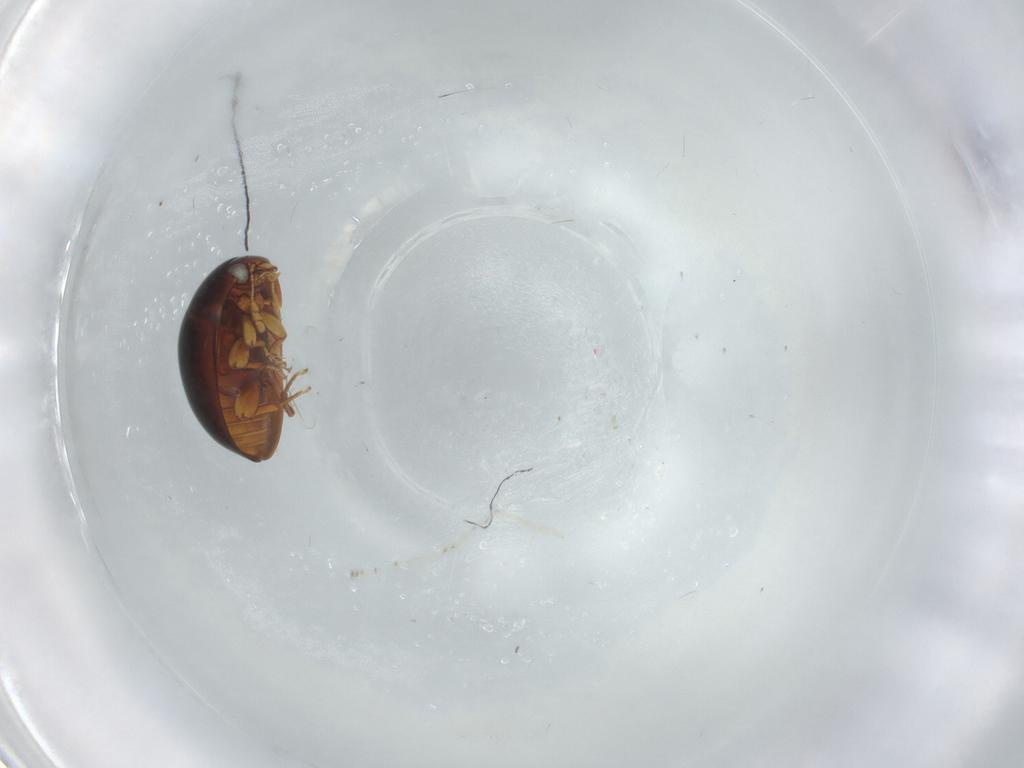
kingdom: Animalia
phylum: Arthropoda
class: Insecta
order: Coleoptera
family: Phalacridae
